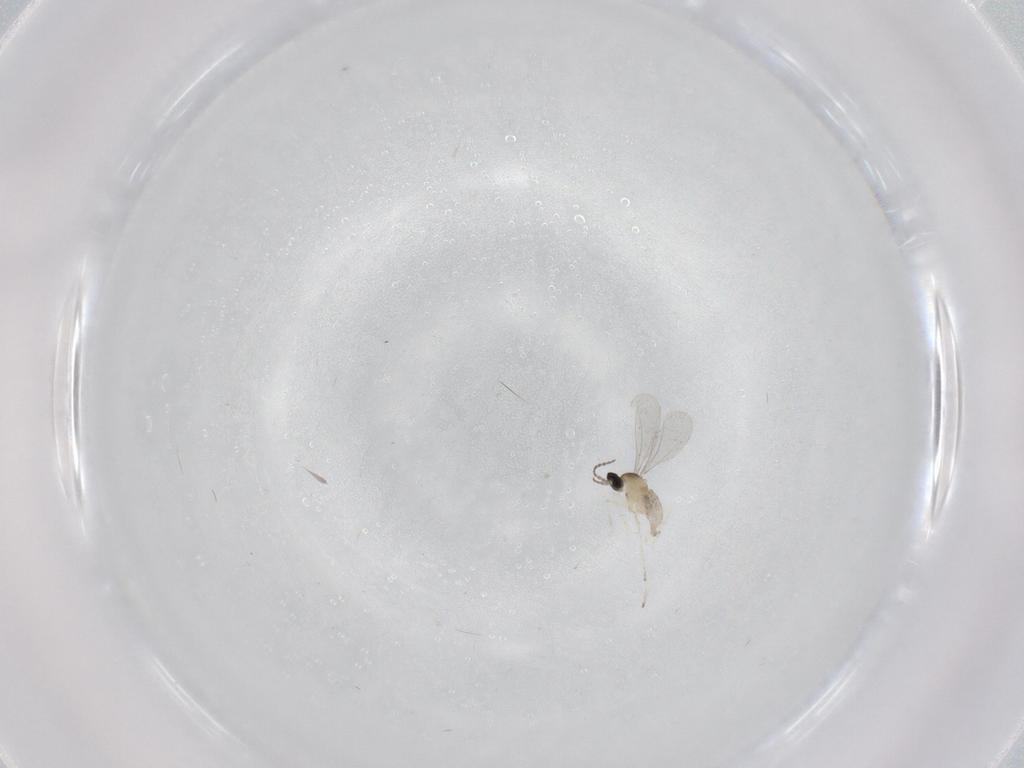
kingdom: Animalia
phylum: Arthropoda
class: Insecta
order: Diptera
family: Cecidomyiidae
